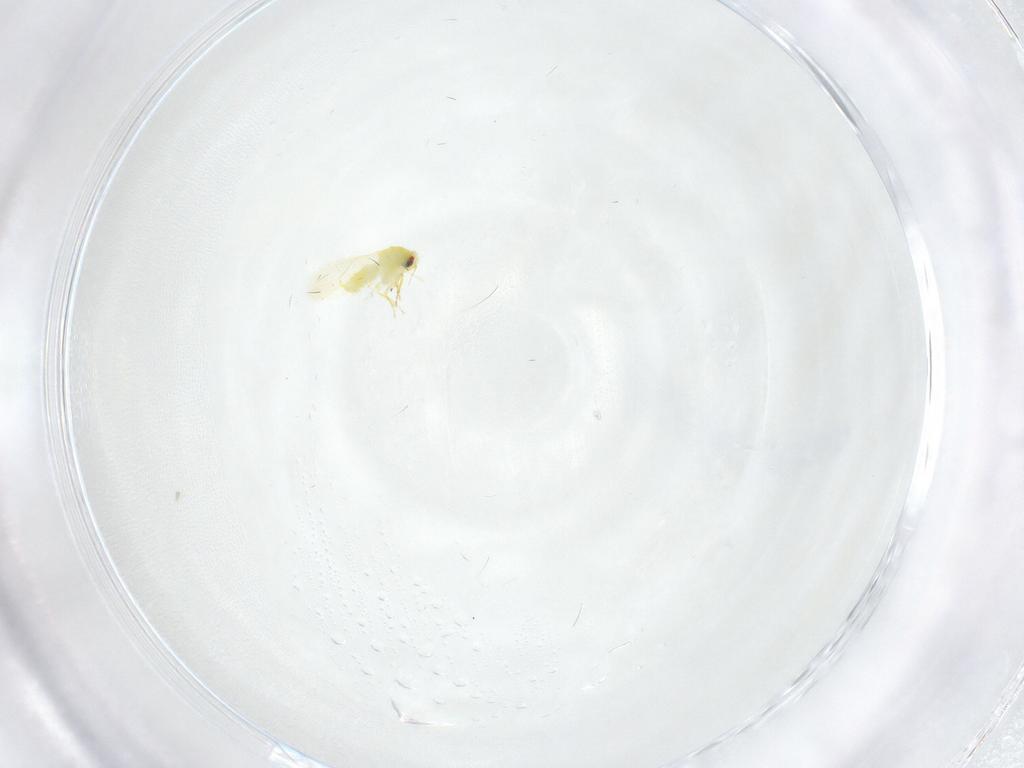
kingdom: Animalia
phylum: Arthropoda
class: Insecta
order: Hemiptera
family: Aleyrodidae
